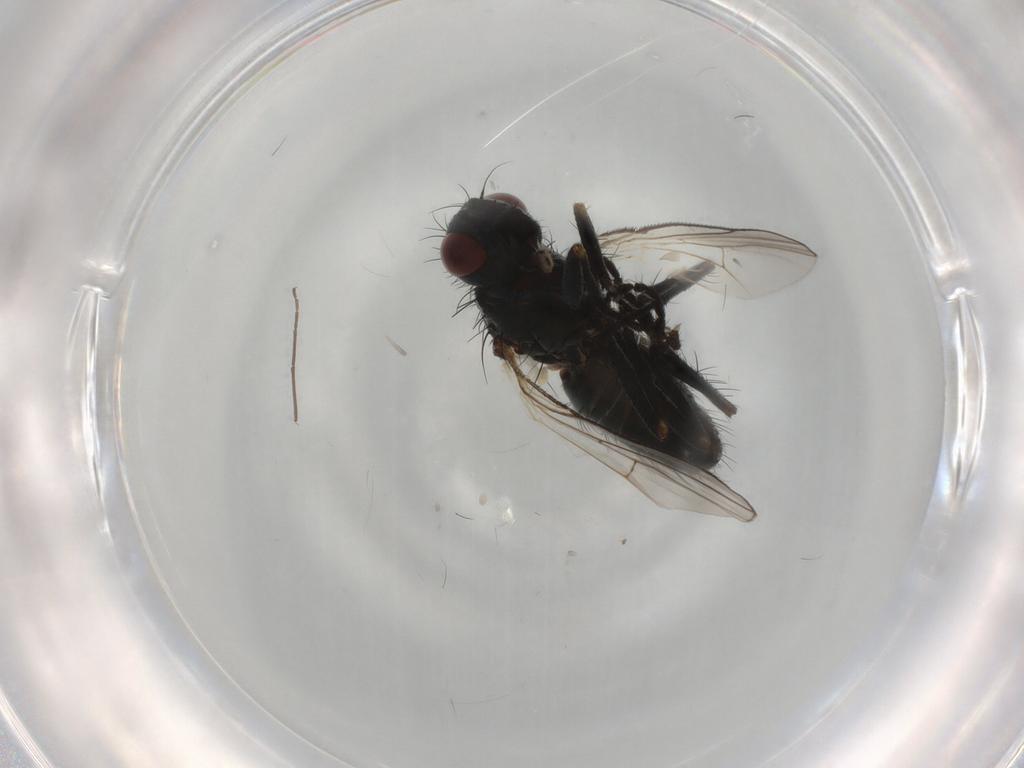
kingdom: Animalia
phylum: Arthropoda
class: Insecta
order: Diptera
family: Muscidae
